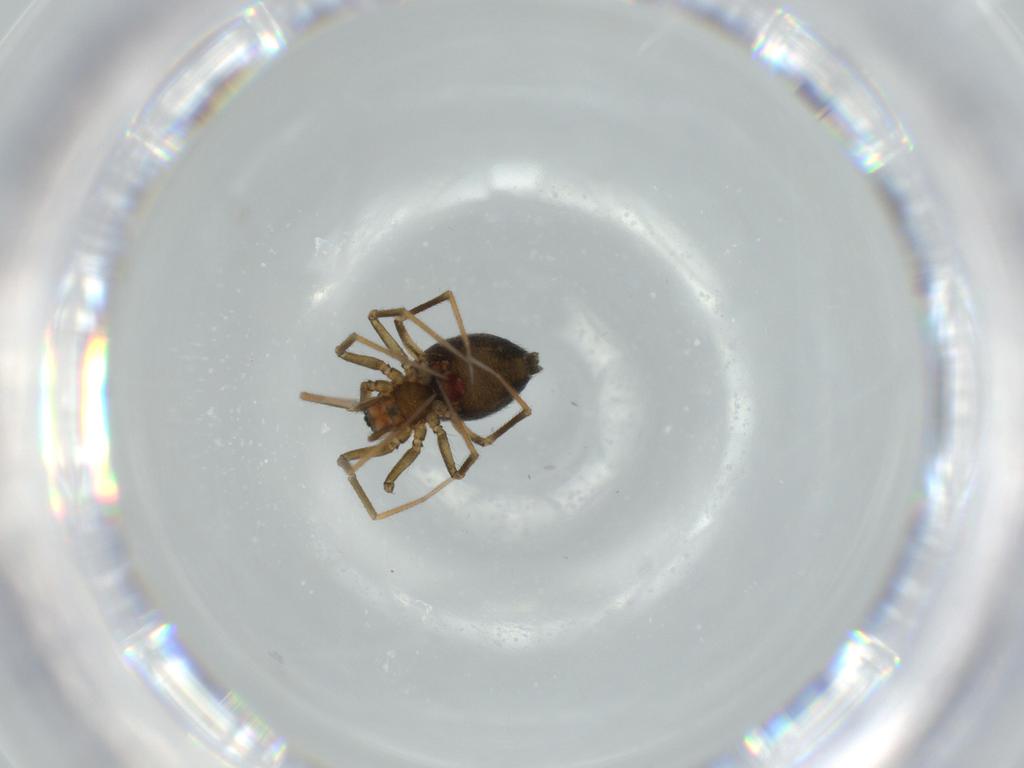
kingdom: Animalia
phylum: Arthropoda
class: Arachnida
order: Araneae
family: Linyphiidae
